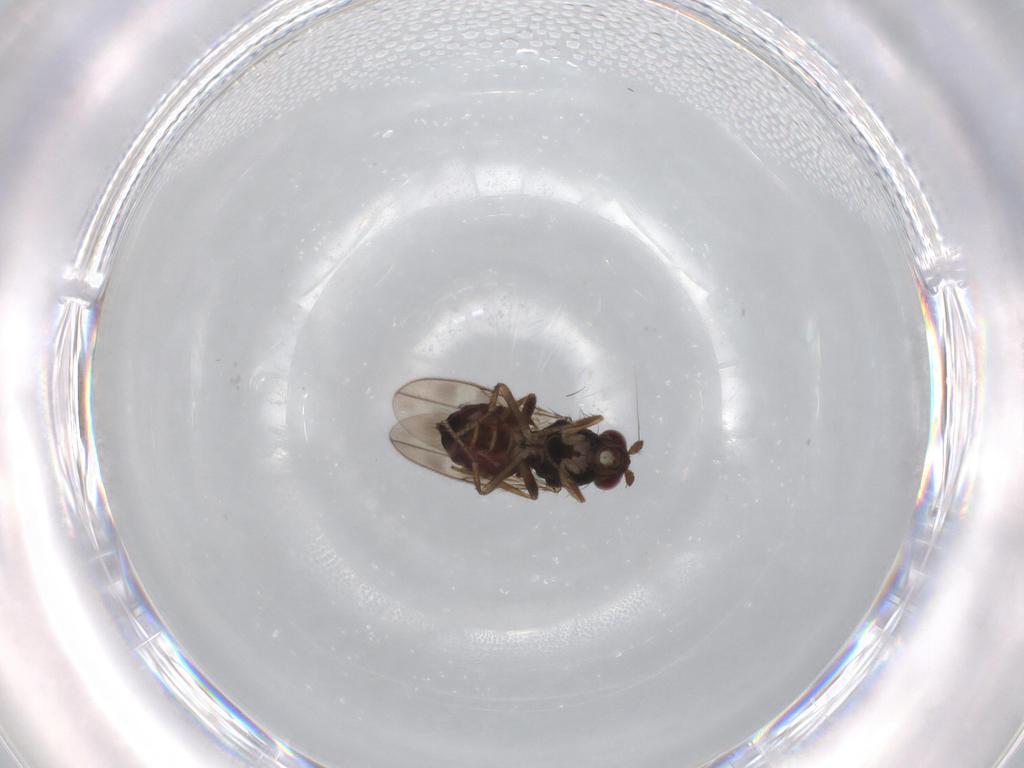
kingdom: Animalia
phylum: Arthropoda
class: Insecta
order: Diptera
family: Sphaeroceridae
